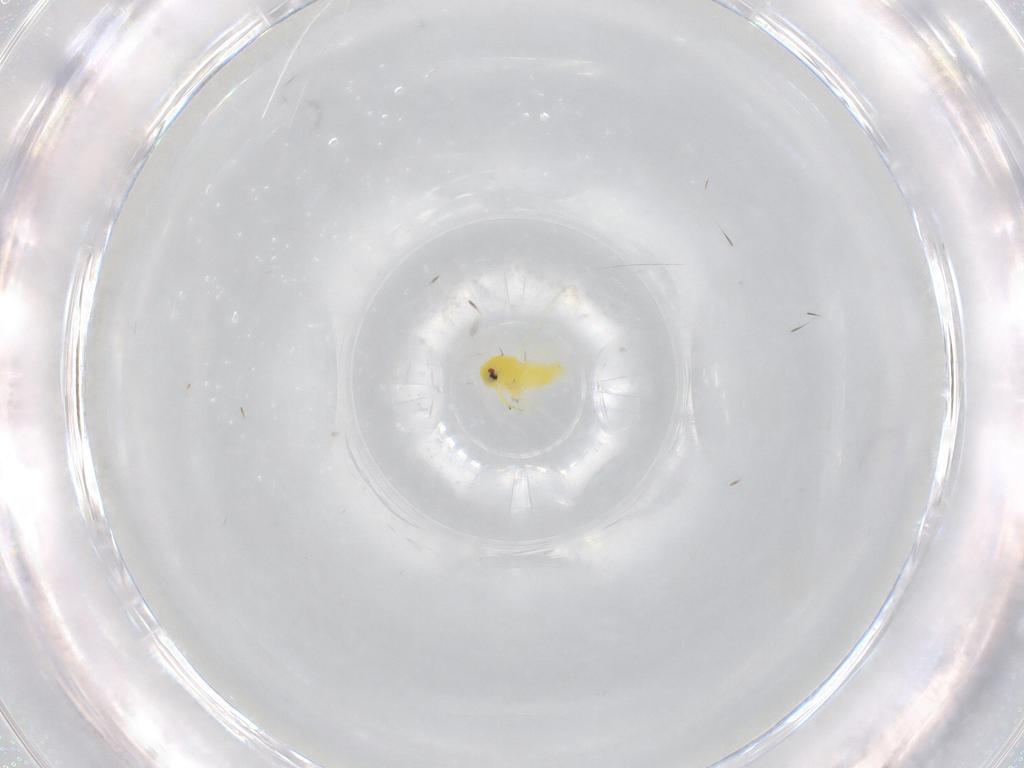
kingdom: Animalia
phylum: Arthropoda
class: Insecta
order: Hemiptera
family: Aleyrodidae
